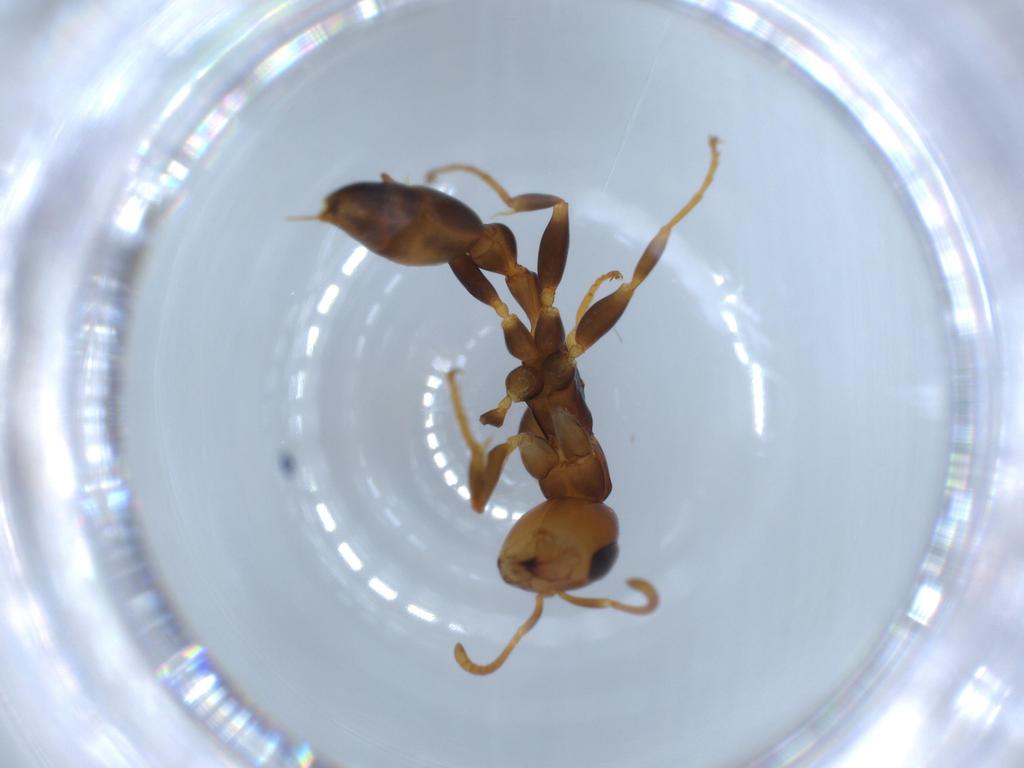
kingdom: Animalia
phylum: Arthropoda
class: Insecta
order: Hymenoptera
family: Formicidae
